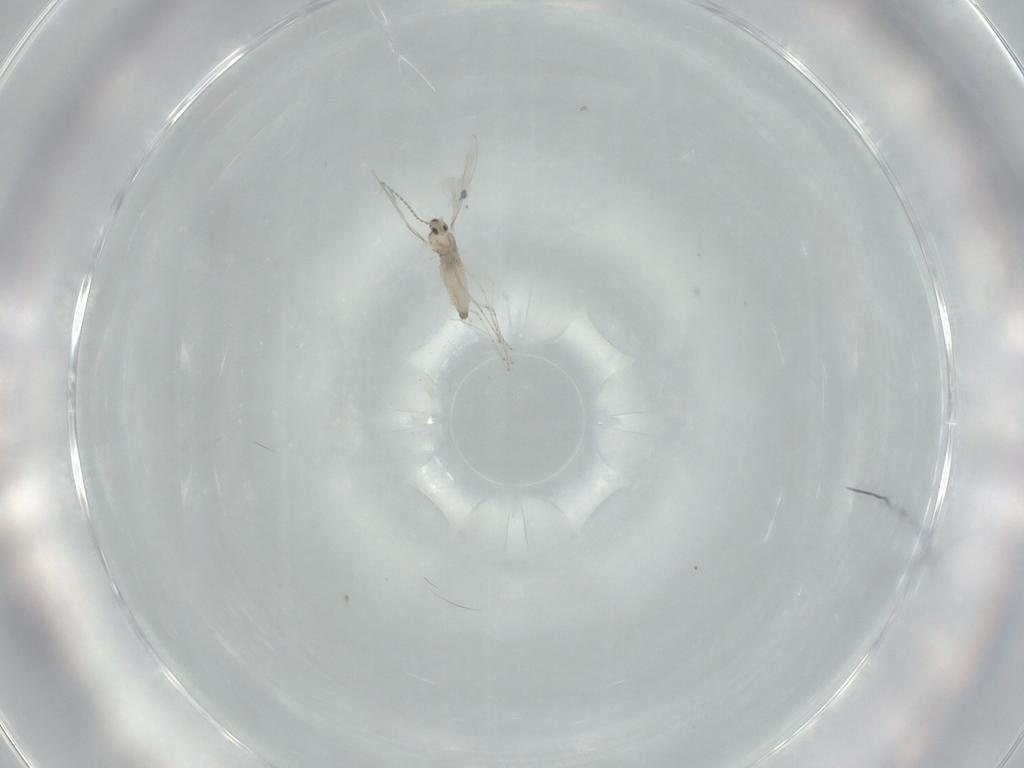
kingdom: Animalia
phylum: Arthropoda
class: Insecta
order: Diptera
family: Cecidomyiidae
